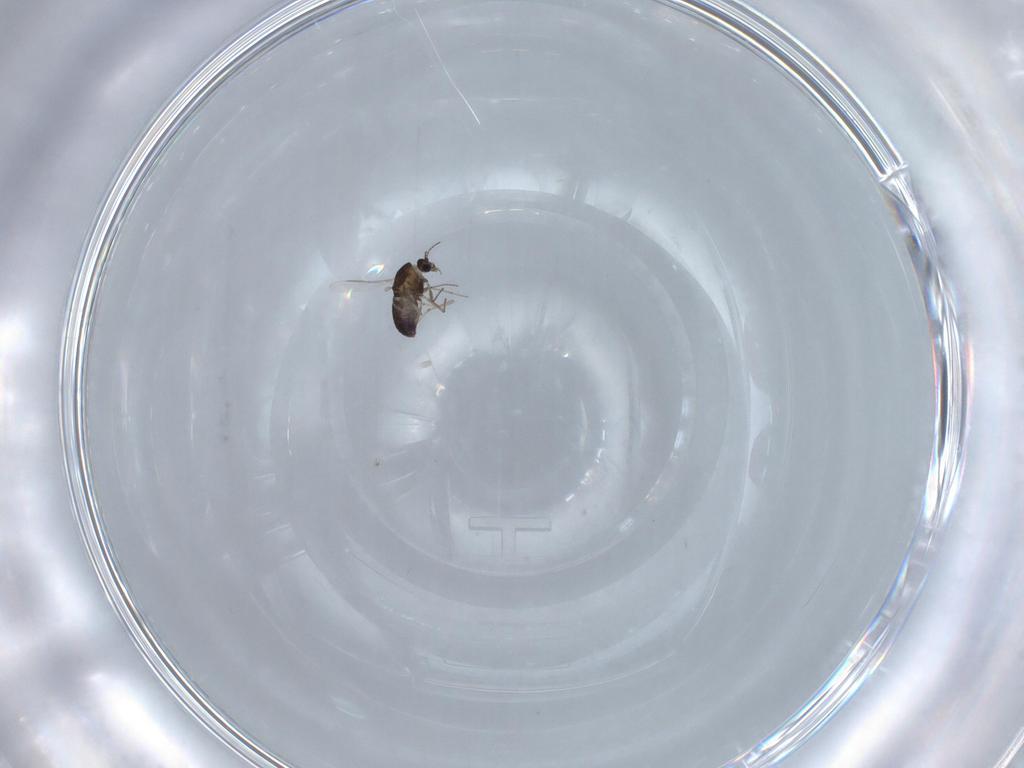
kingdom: Animalia
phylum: Arthropoda
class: Insecta
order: Diptera
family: Chironomidae
